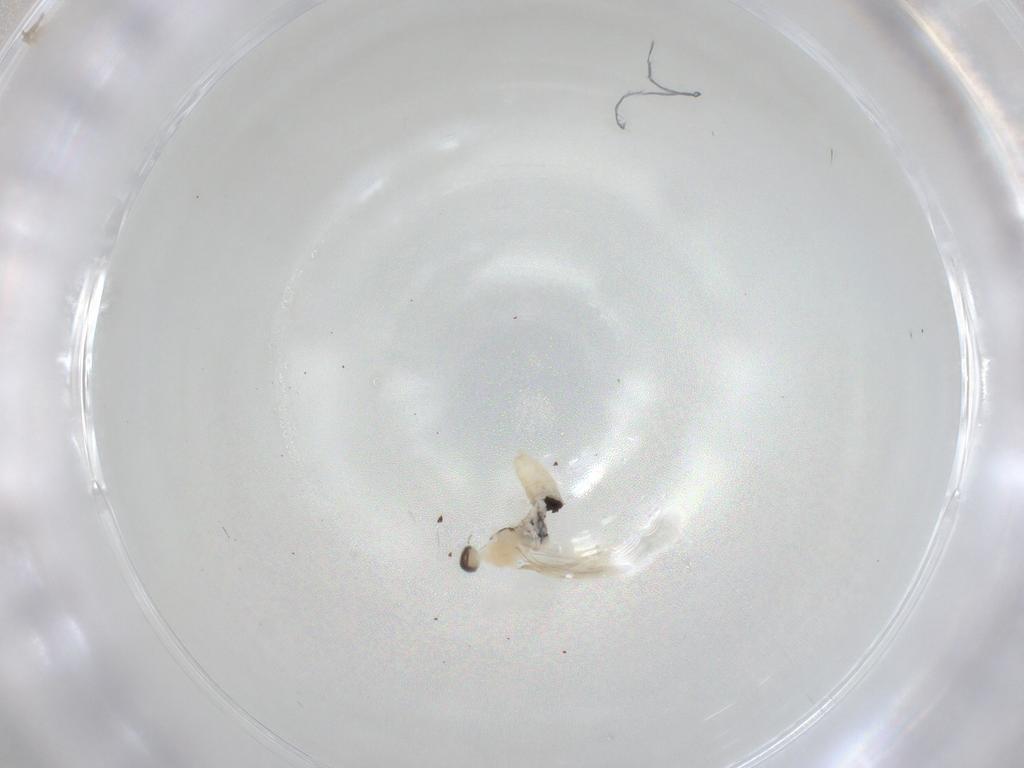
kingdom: Animalia
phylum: Arthropoda
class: Insecta
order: Diptera
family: Cecidomyiidae
